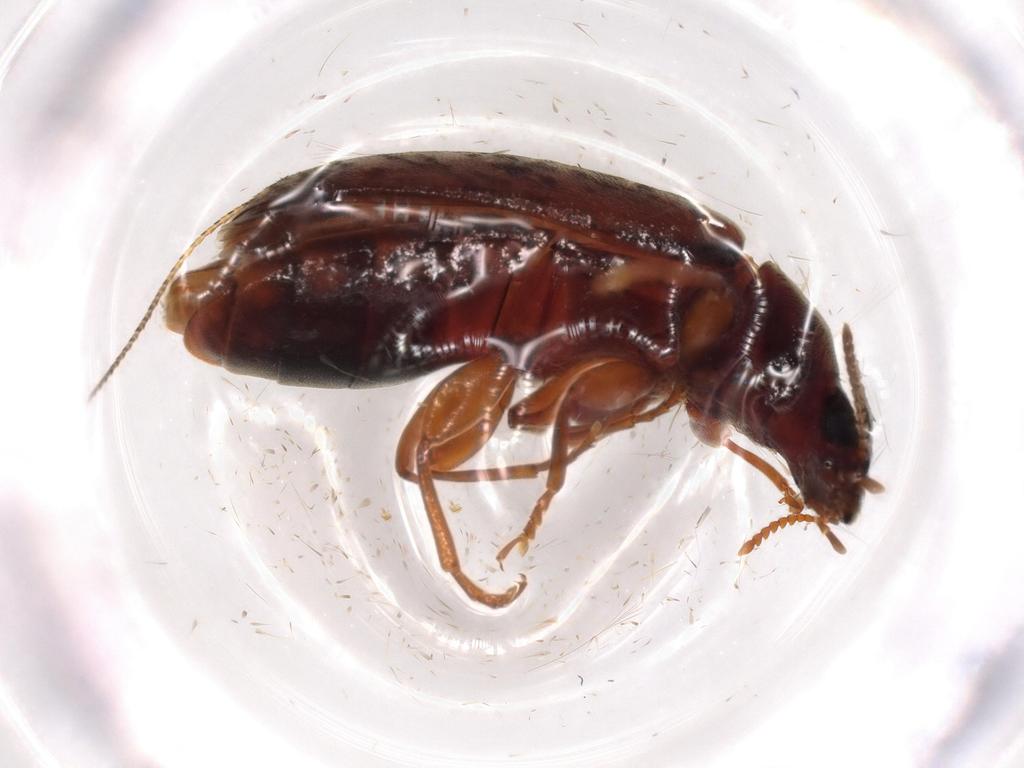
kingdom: Animalia
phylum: Arthropoda
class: Insecta
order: Coleoptera
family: Mycteridae
